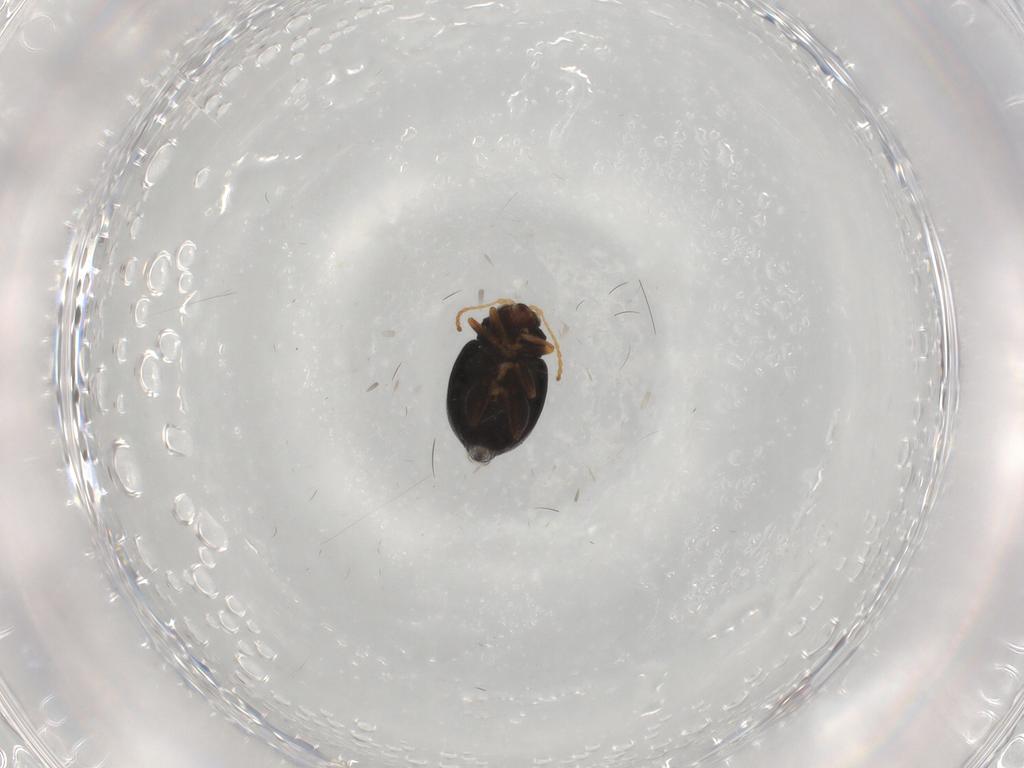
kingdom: Animalia
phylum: Arthropoda
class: Insecta
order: Coleoptera
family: Chrysomelidae
